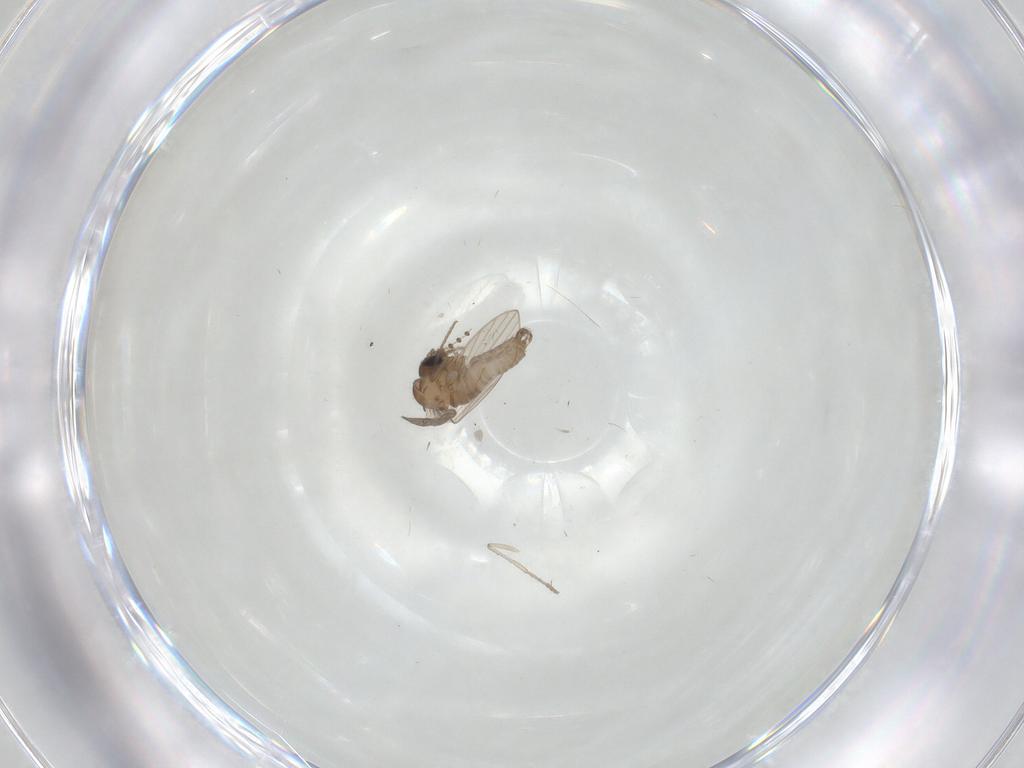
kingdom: Animalia
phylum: Arthropoda
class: Insecta
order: Diptera
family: Psychodidae
